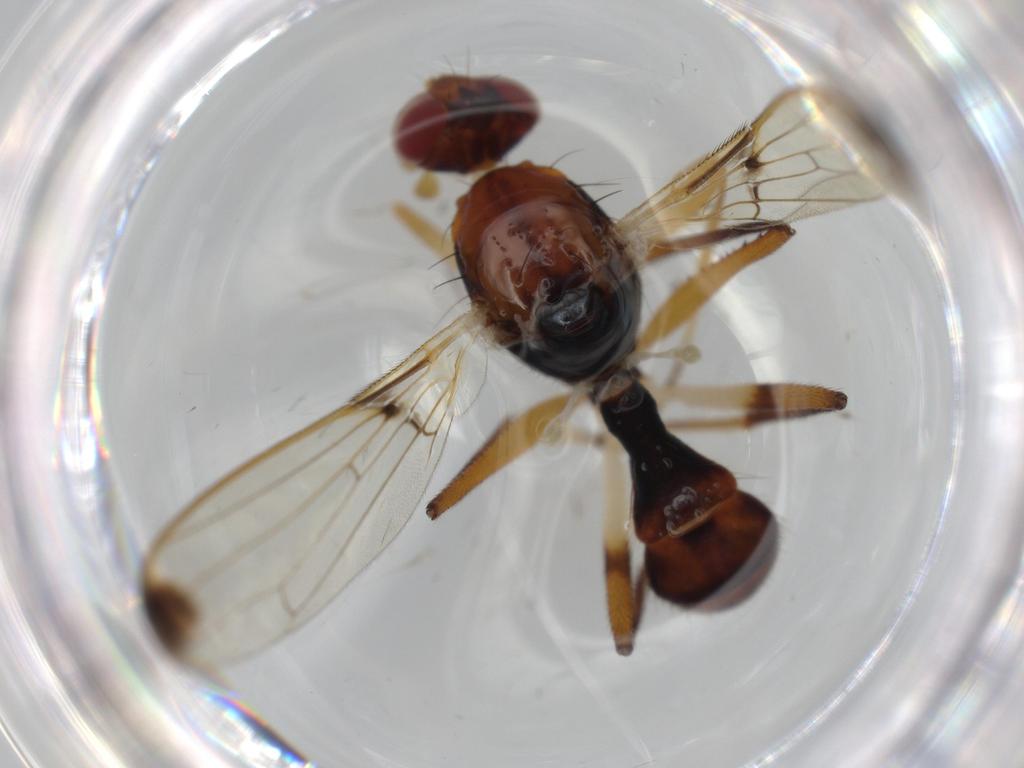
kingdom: Animalia
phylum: Arthropoda
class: Insecta
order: Diptera
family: Richardiidae
